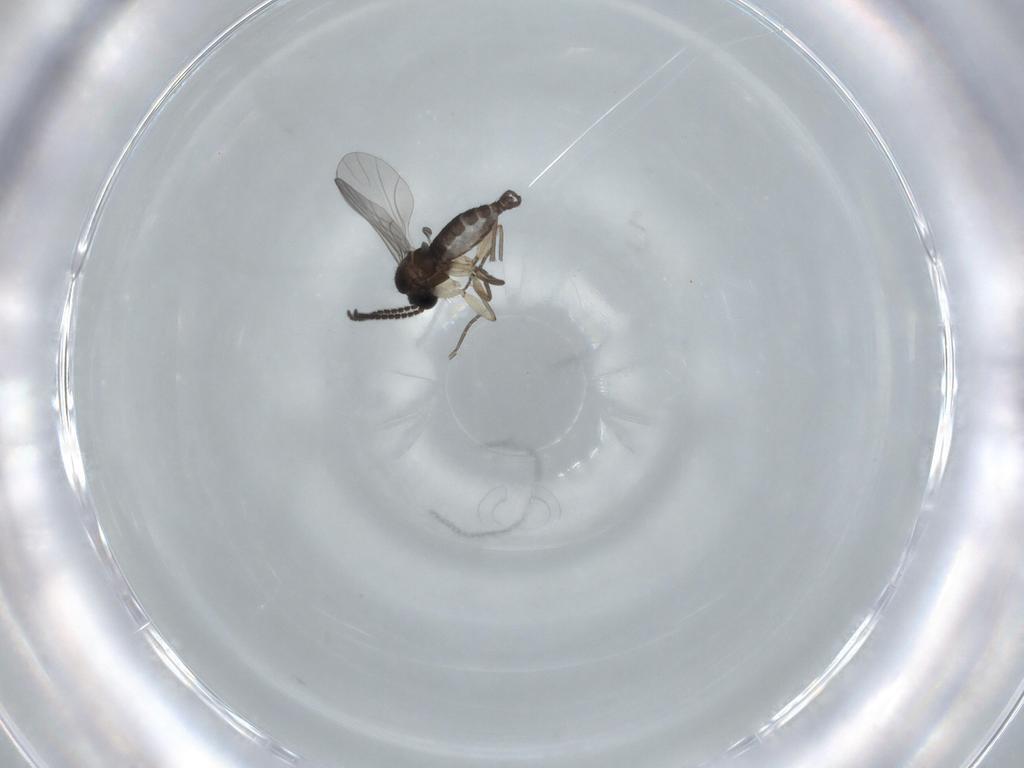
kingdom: Animalia
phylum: Arthropoda
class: Insecta
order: Diptera
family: Sciaridae
